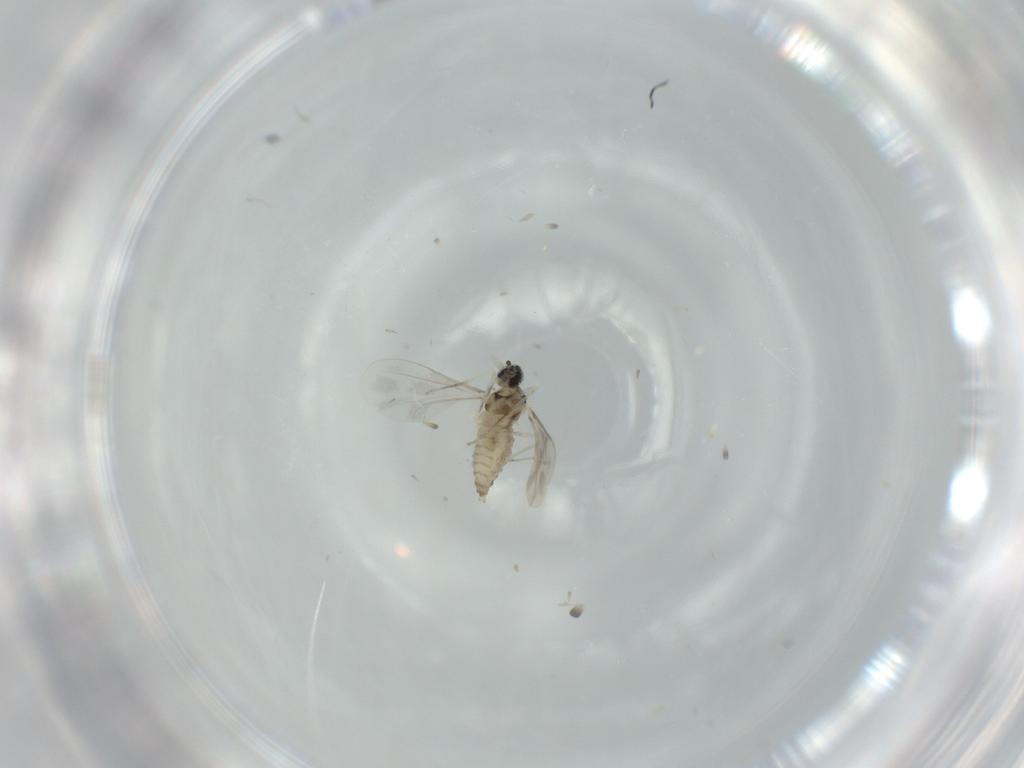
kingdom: Animalia
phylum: Arthropoda
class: Insecta
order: Diptera
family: Cecidomyiidae
